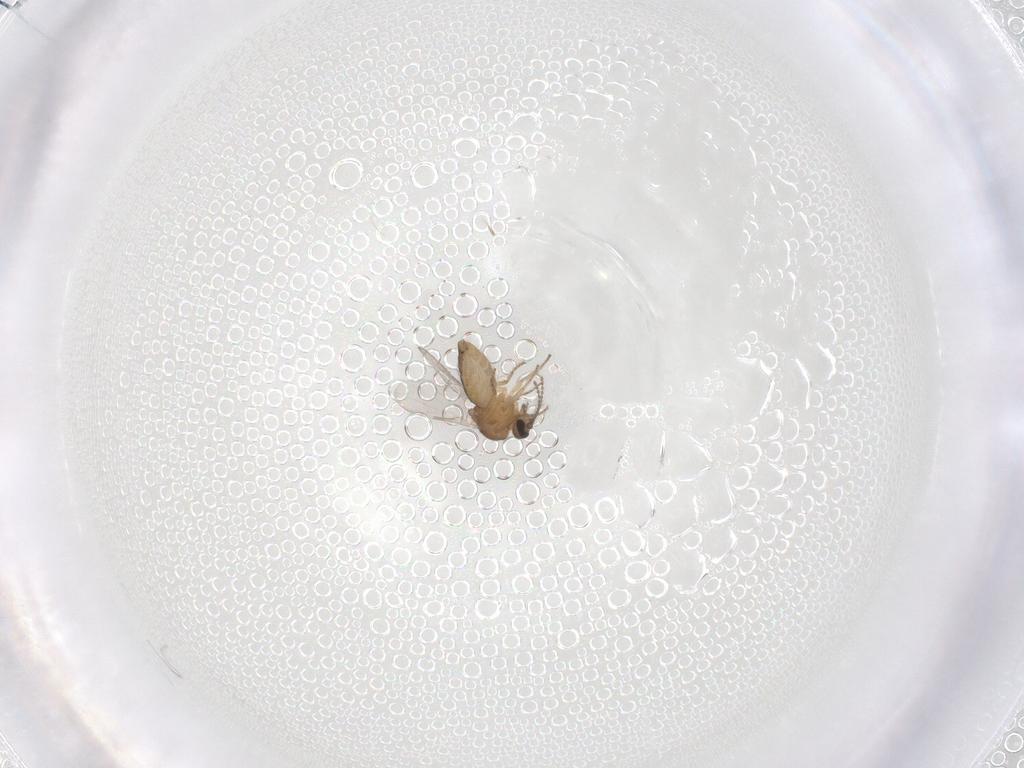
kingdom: Animalia
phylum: Arthropoda
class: Insecta
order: Diptera
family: Ceratopogonidae
